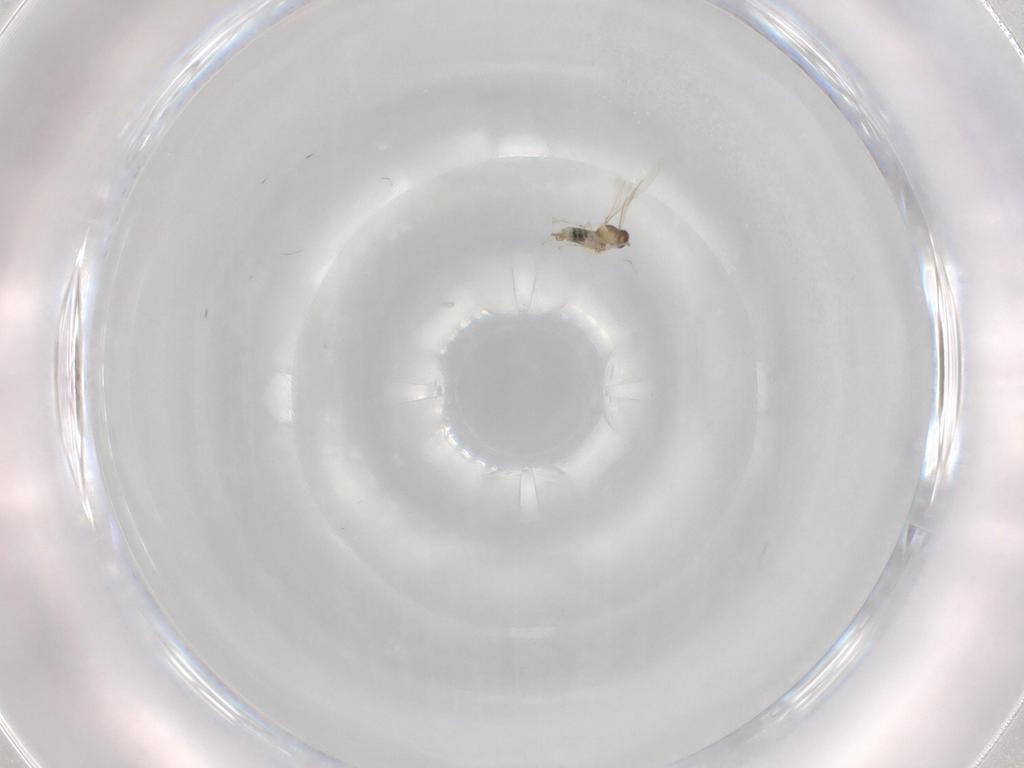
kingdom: Animalia
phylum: Arthropoda
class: Insecta
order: Diptera
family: Cecidomyiidae
